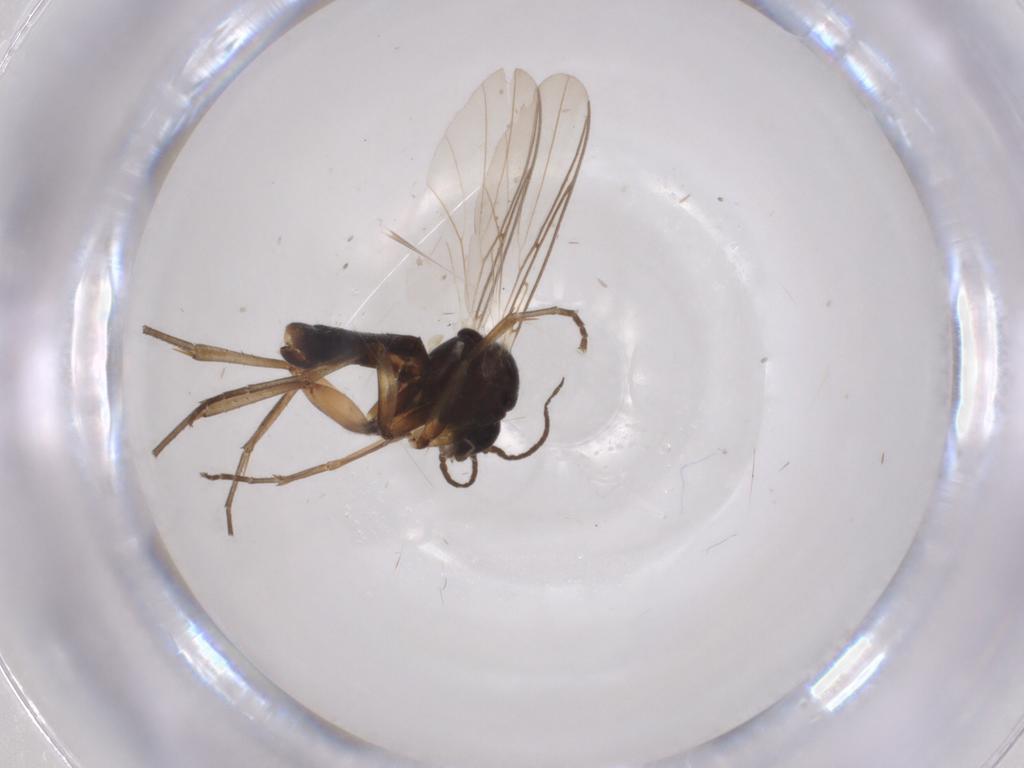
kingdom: Animalia
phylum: Arthropoda
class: Insecta
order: Diptera
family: Mycetophilidae
